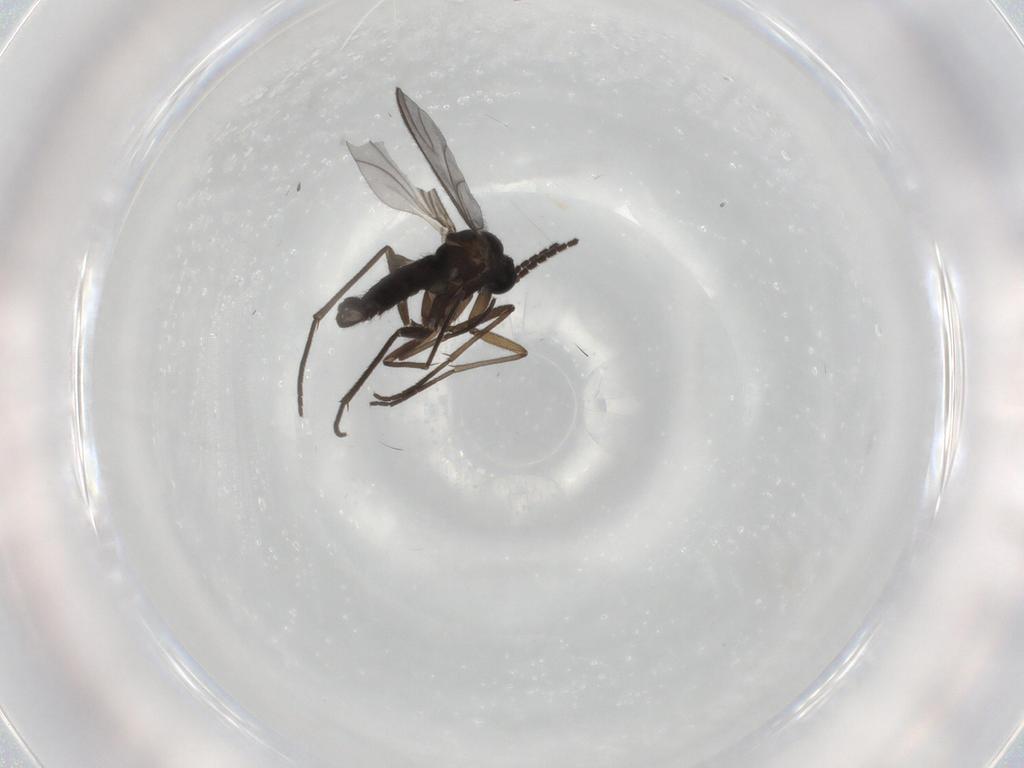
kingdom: Animalia
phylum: Arthropoda
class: Insecta
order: Diptera
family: Sciaridae
